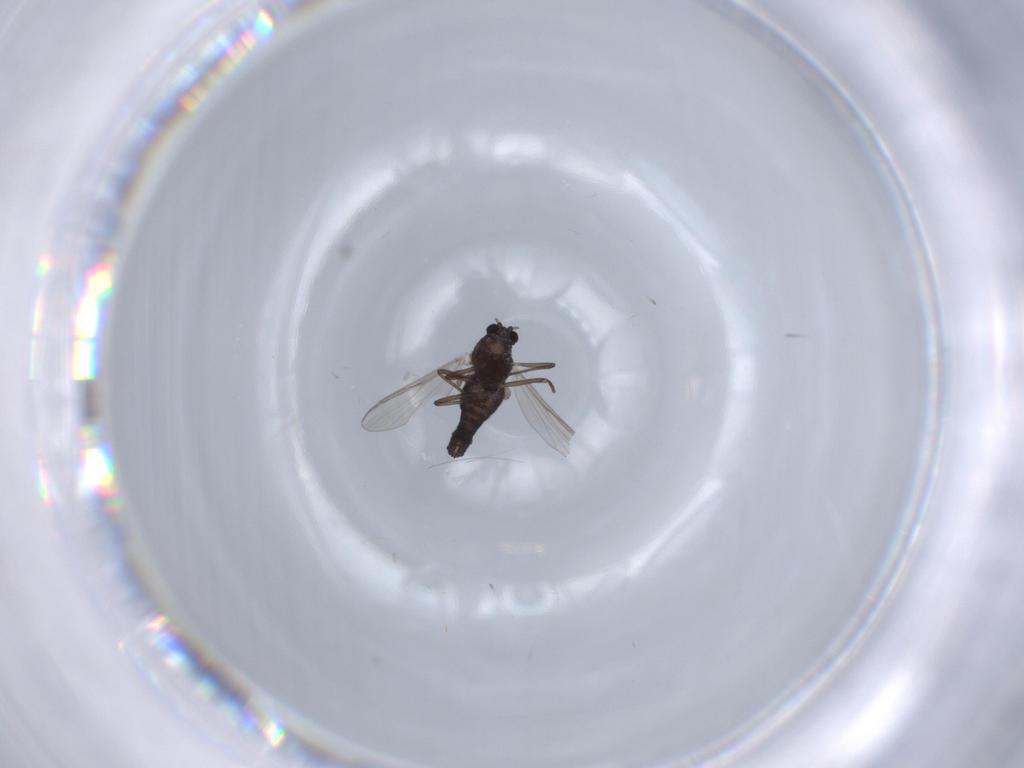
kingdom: Animalia
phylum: Arthropoda
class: Insecta
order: Diptera
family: Chironomidae
